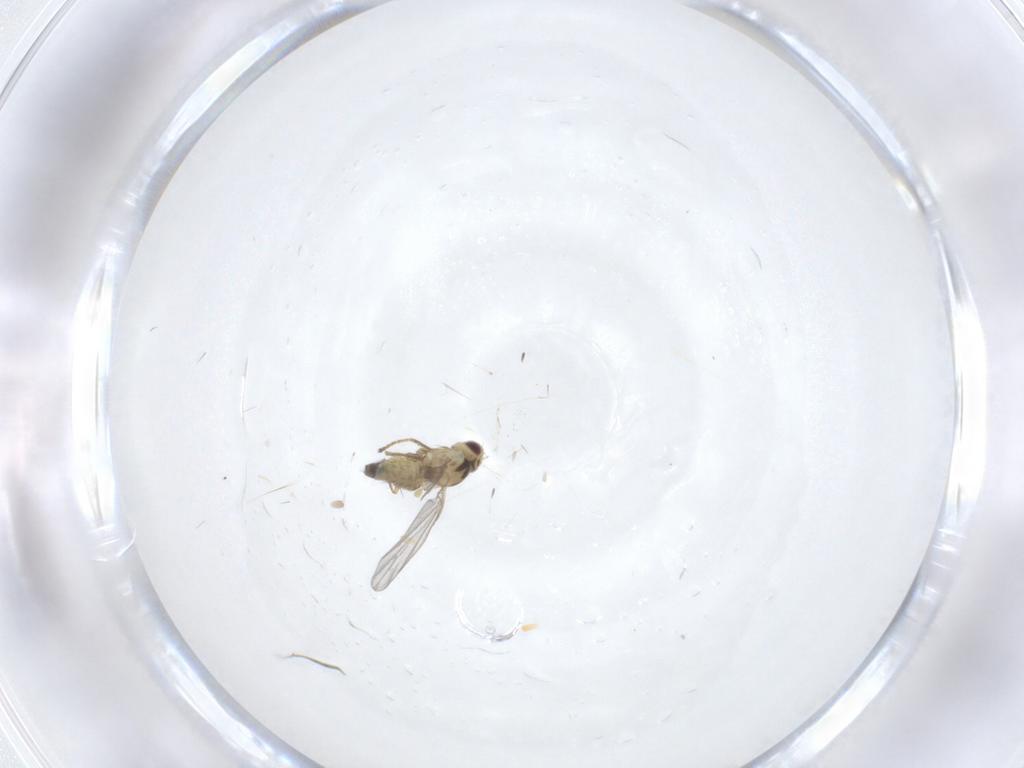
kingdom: Animalia
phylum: Arthropoda
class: Insecta
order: Diptera
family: Agromyzidae
